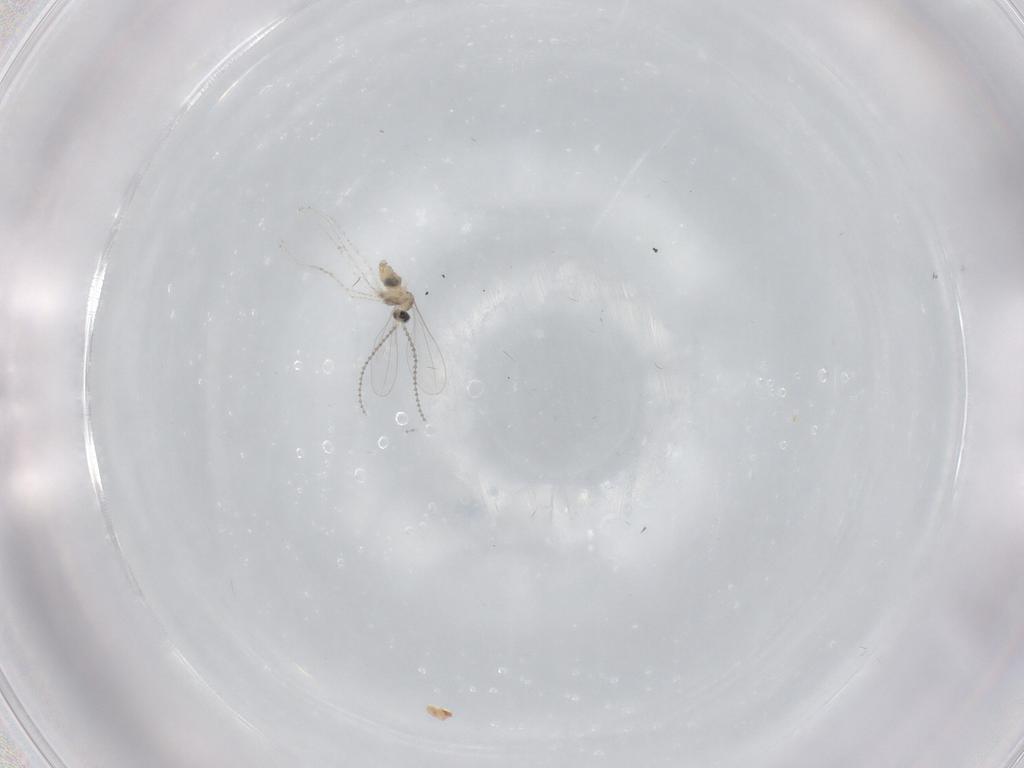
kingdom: Animalia
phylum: Arthropoda
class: Insecta
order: Diptera
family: Cecidomyiidae
